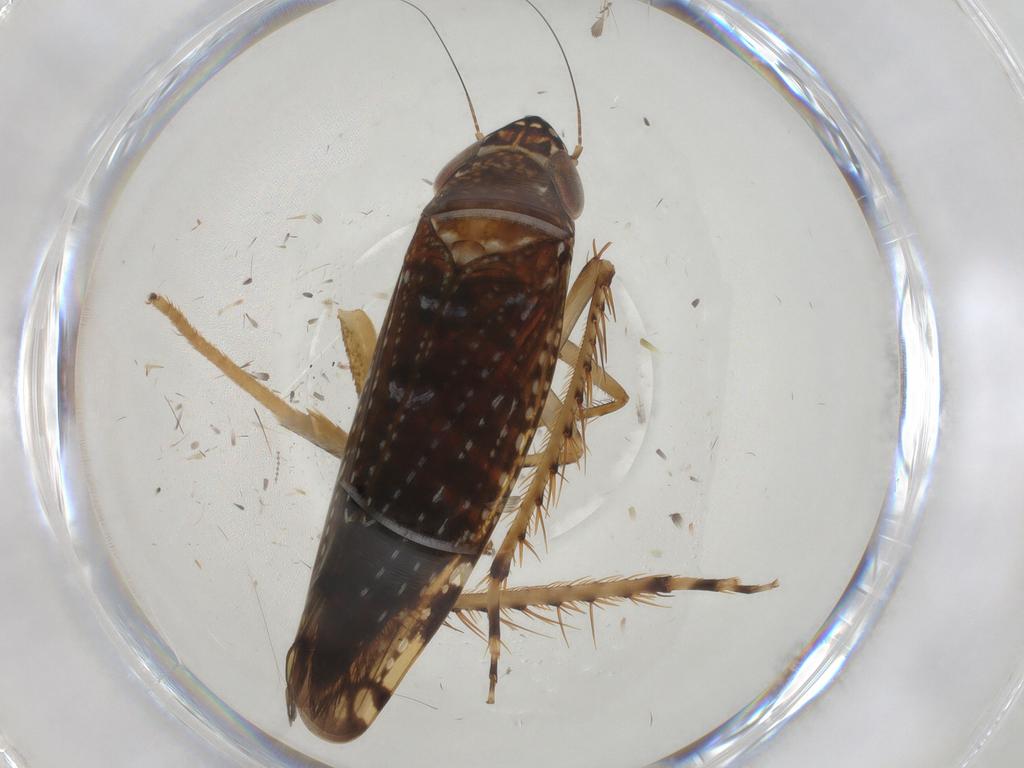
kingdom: Animalia
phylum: Arthropoda
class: Insecta
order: Hemiptera
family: Cicadellidae
